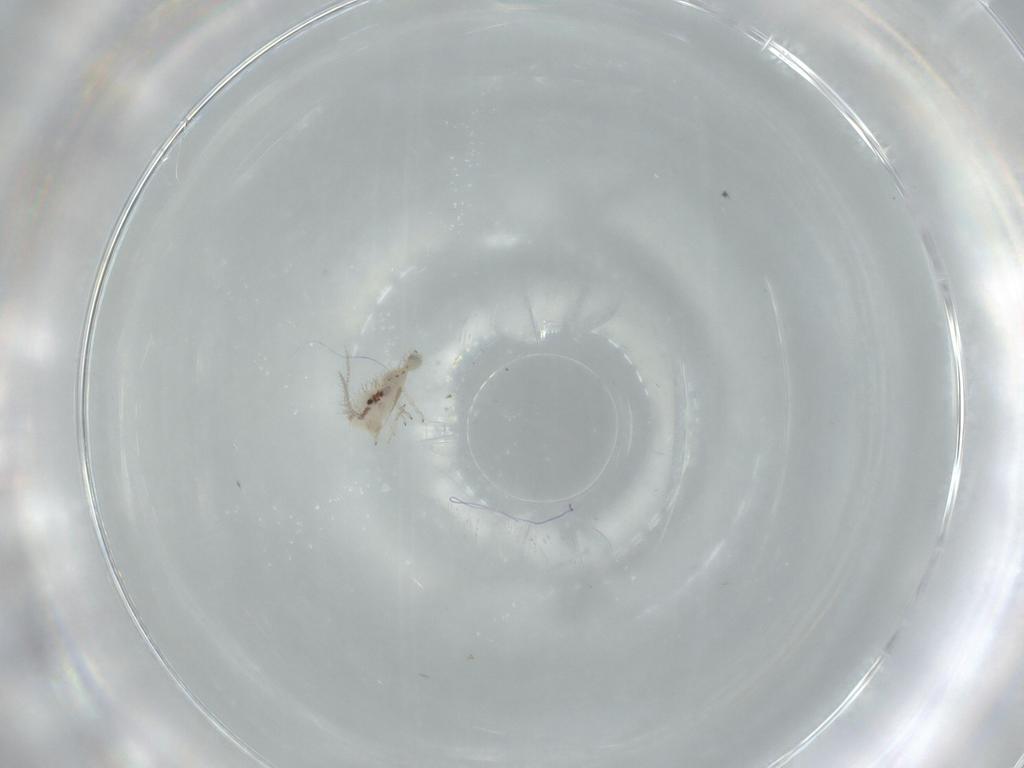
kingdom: Animalia
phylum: Arthropoda
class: Insecta
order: Psocodea
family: Pseudocaeciliidae
